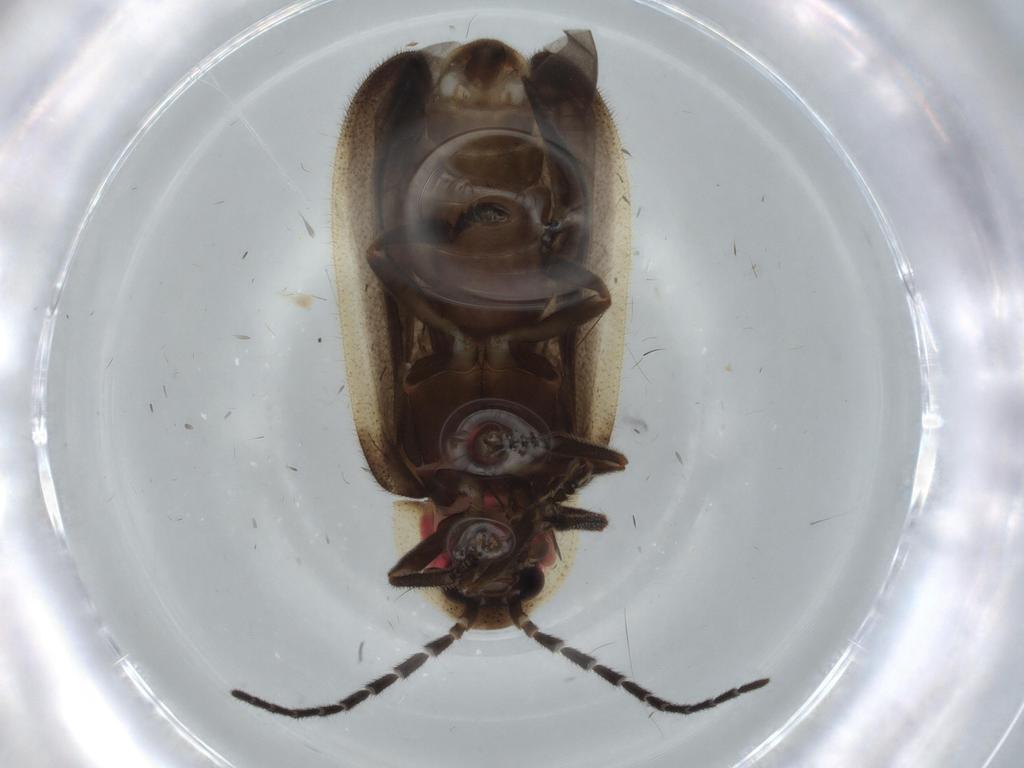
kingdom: Animalia
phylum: Arthropoda
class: Insecta
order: Coleoptera
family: Lampyridae
